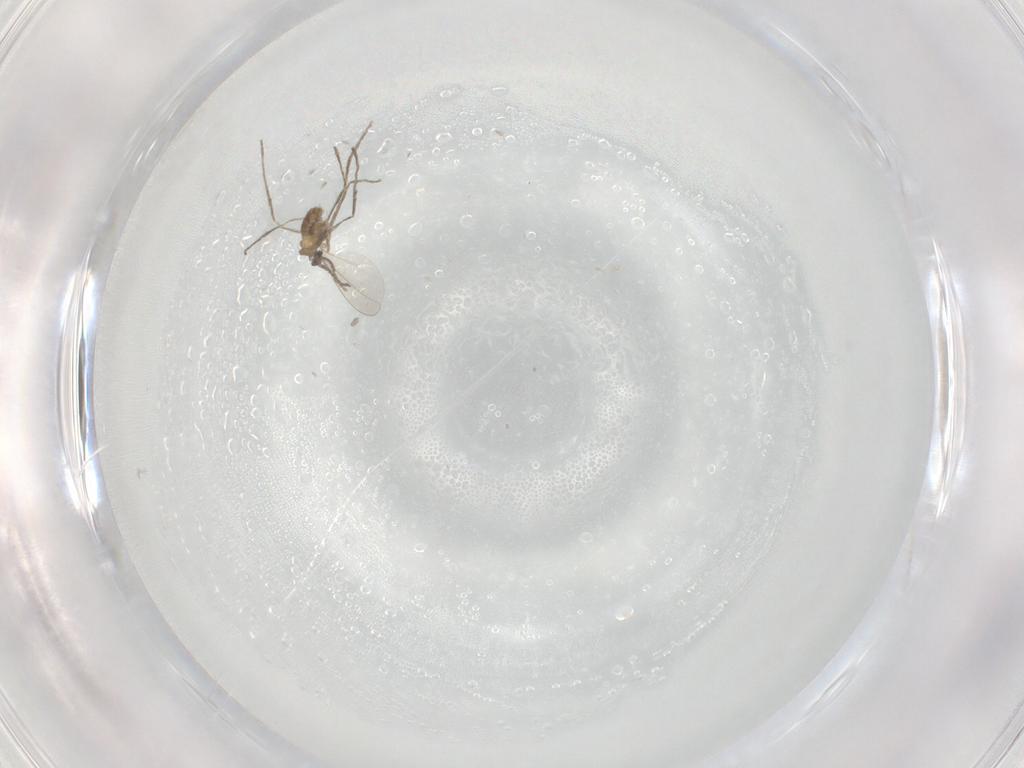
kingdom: Animalia
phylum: Arthropoda
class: Insecta
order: Diptera
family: Cecidomyiidae
